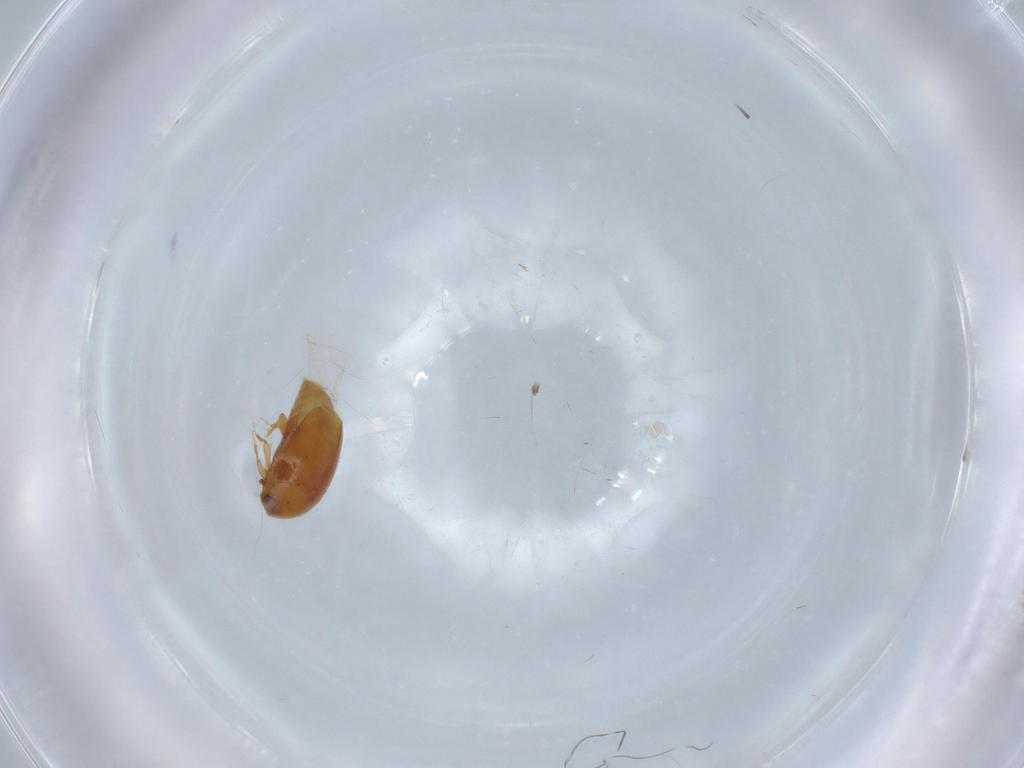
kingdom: Animalia
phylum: Arthropoda
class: Insecta
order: Coleoptera
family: Corylophidae
